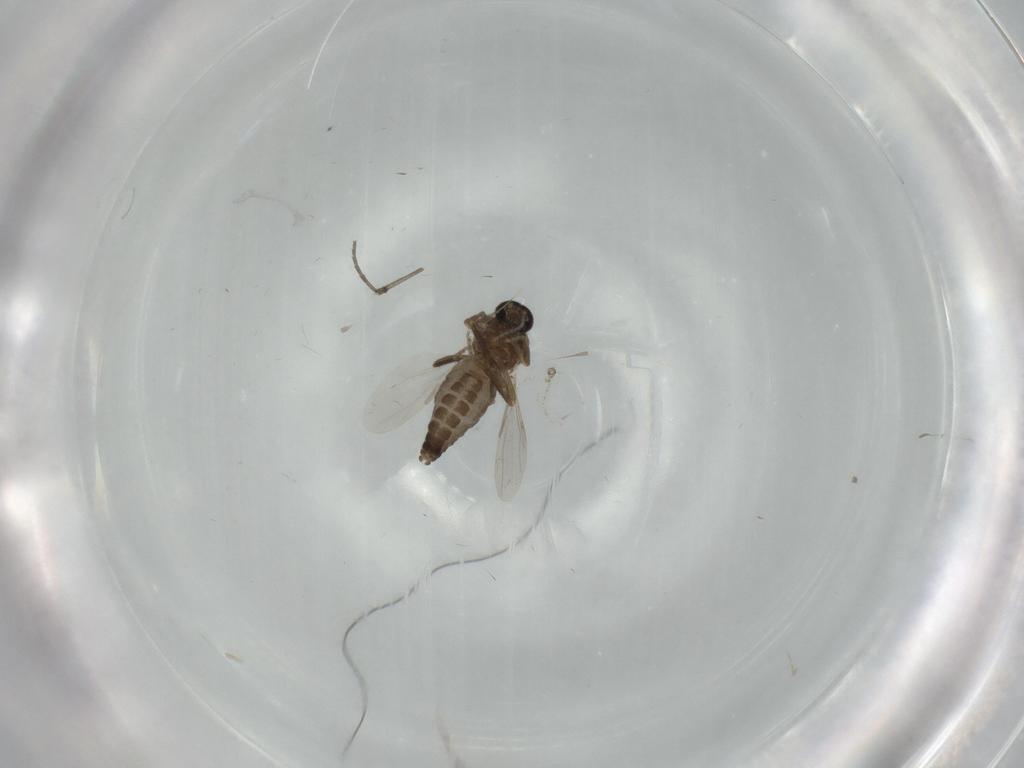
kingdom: Animalia
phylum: Arthropoda
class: Insecta
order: Diptera
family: Ceratopogonidae
